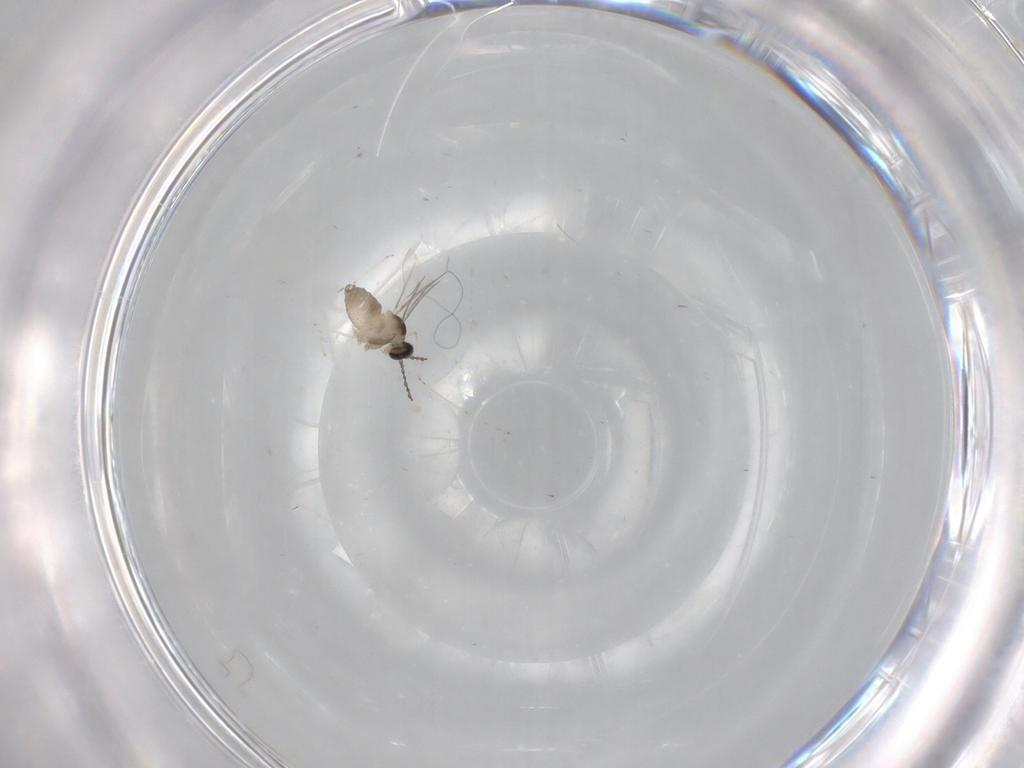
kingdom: Animalia
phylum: Arthropoda
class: Insecta
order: Diptera
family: Cecidomyiidae
